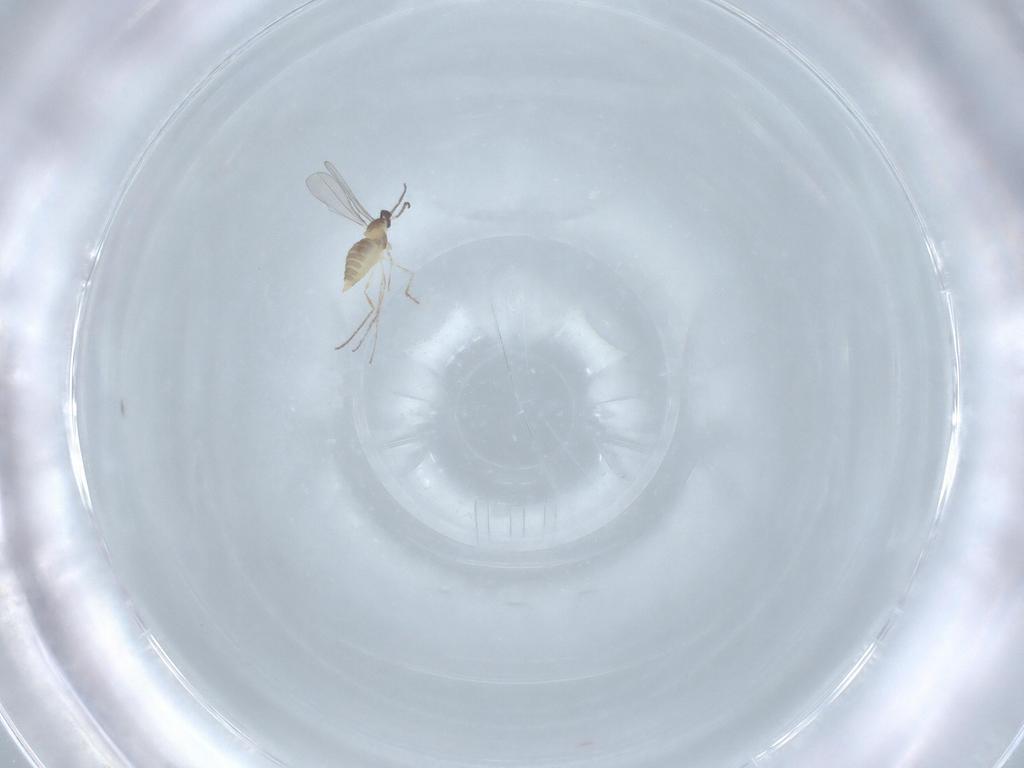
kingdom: Animalia
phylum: Arthropoda
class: Insecta
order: Diptera
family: Cecidomyiidae
